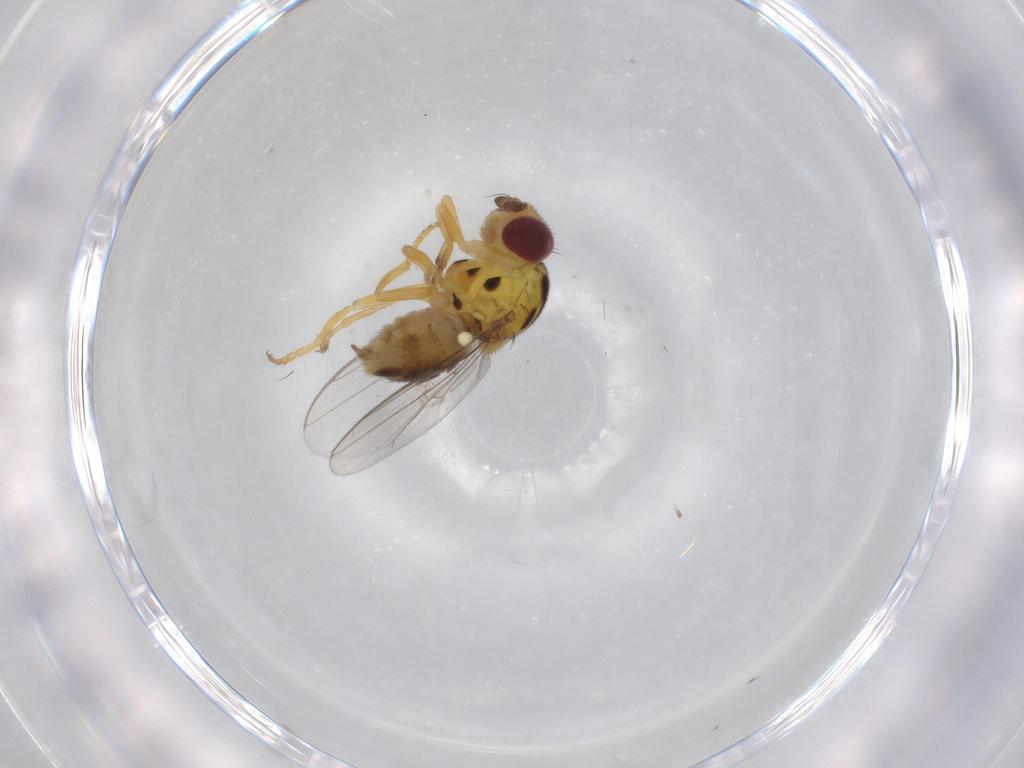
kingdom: Animalia
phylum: Arthropoda
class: Insecta
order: Diptera
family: Chloropidae
